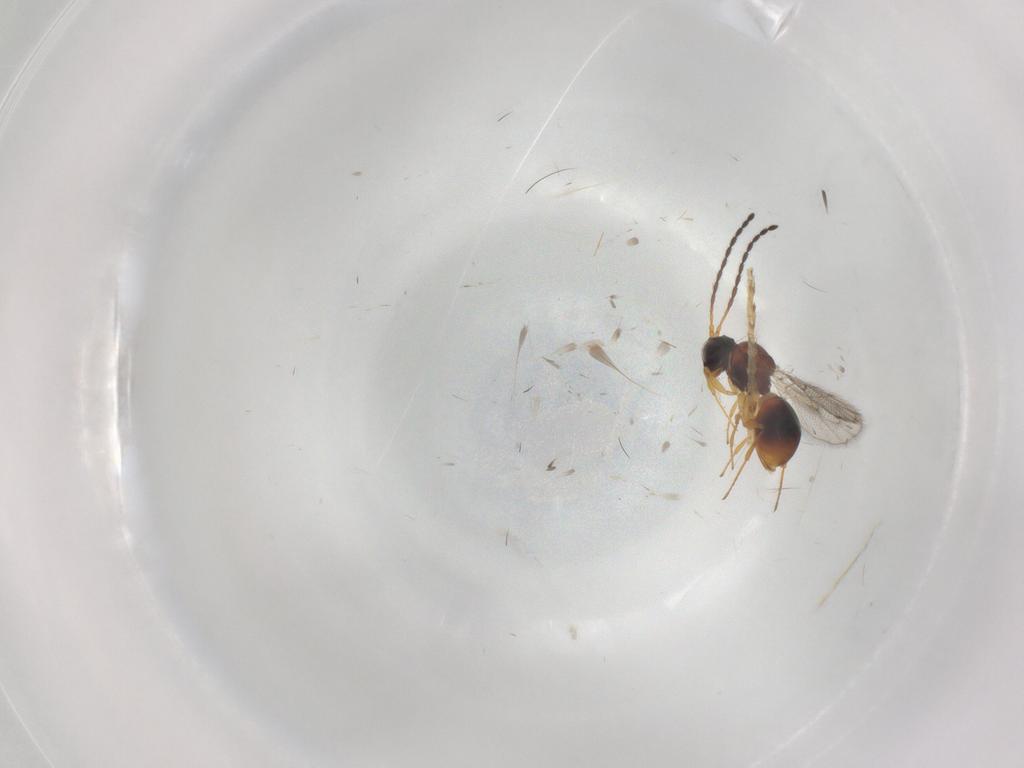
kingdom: Animalia
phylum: Arthropoda
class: Insecta
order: Hymenoptera
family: Figitidae
